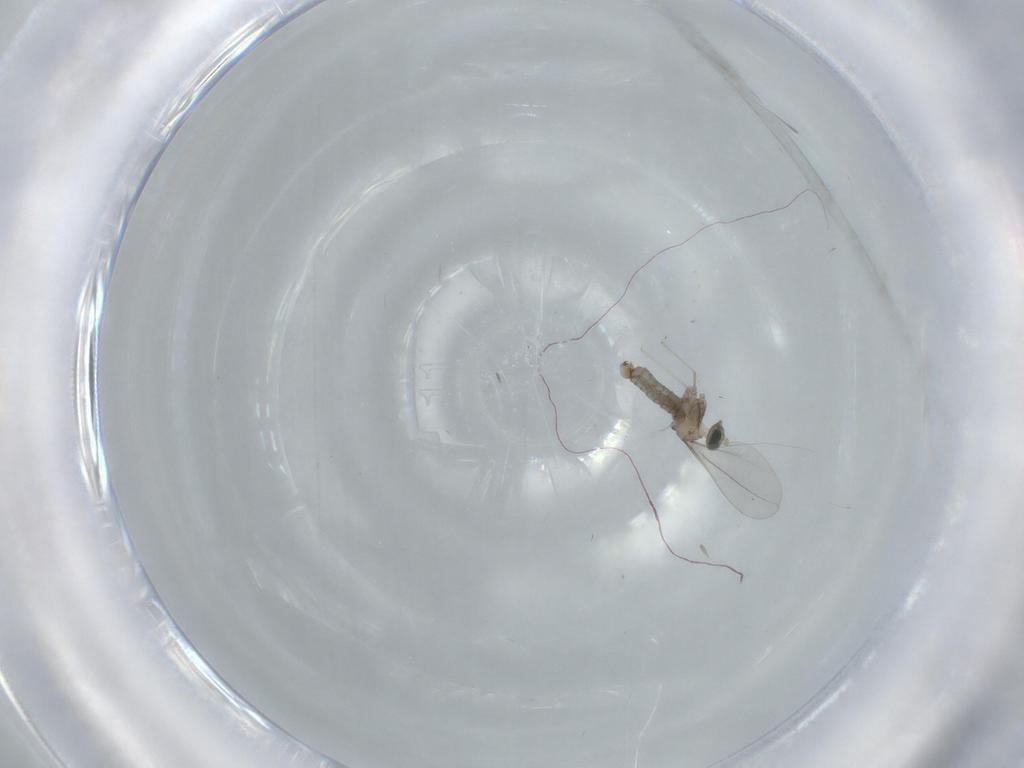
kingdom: Animalia
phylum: Arthropoda
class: Insecta
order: Diptera
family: Cecidomyiidae
